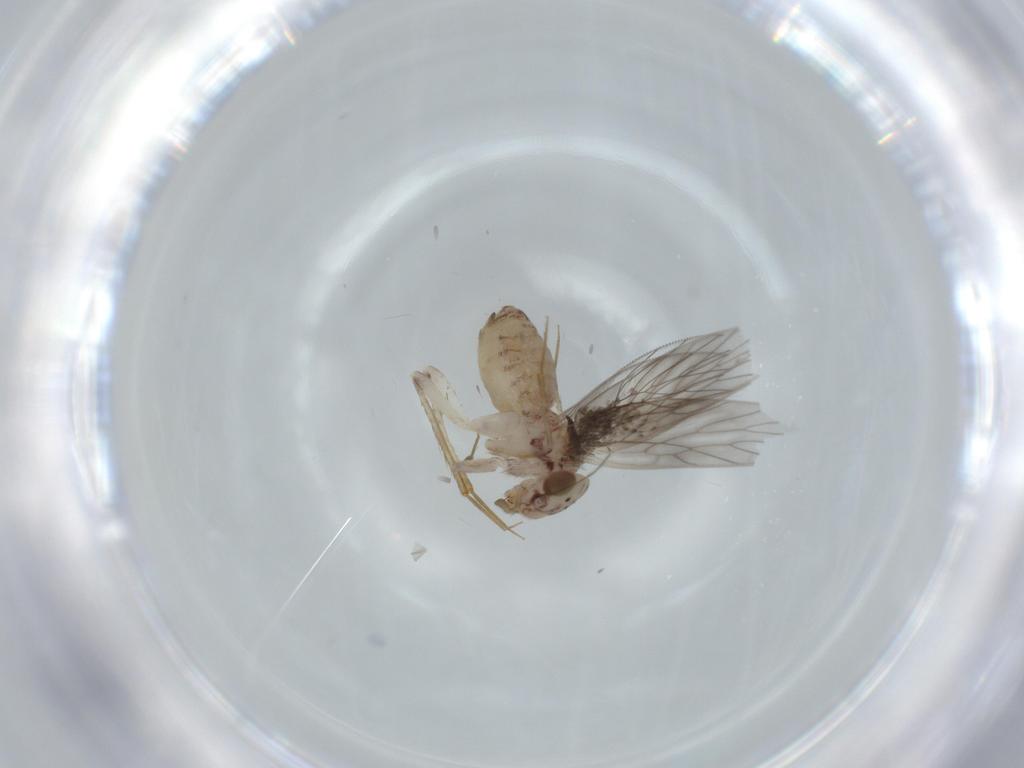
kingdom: Animalia
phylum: Arthropoda
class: Insecta
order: Psocodea
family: Lepidopsocidae
